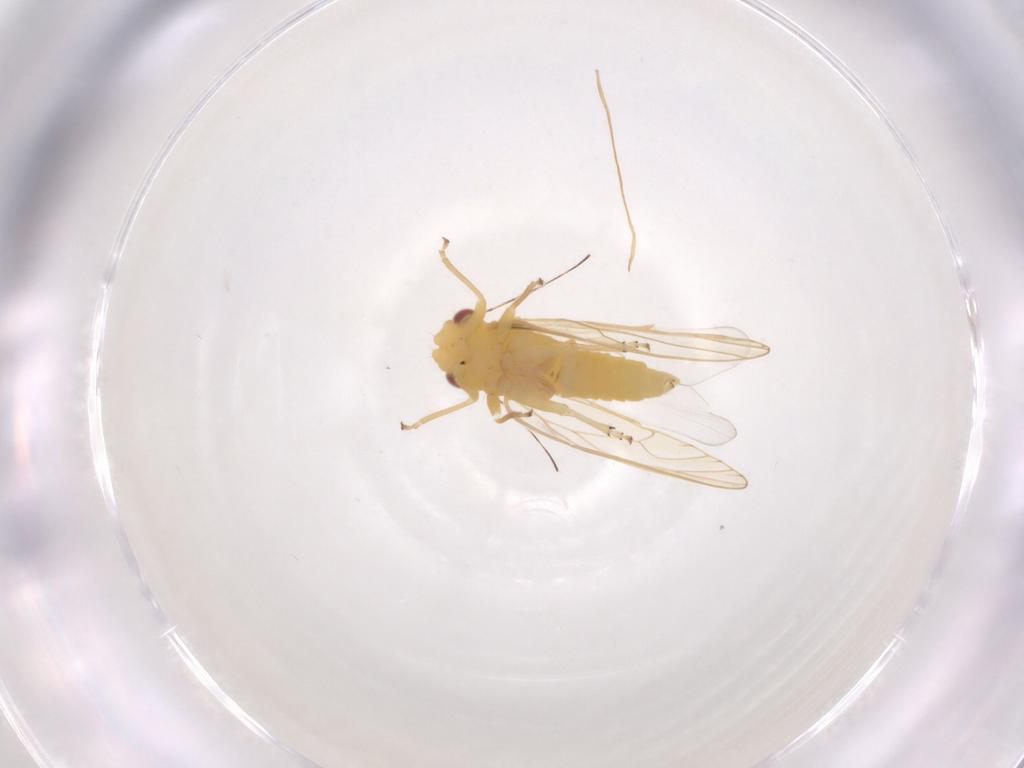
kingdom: Animalia
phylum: Arthropoda
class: Insecta
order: Hemiptera
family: Psyllidae
